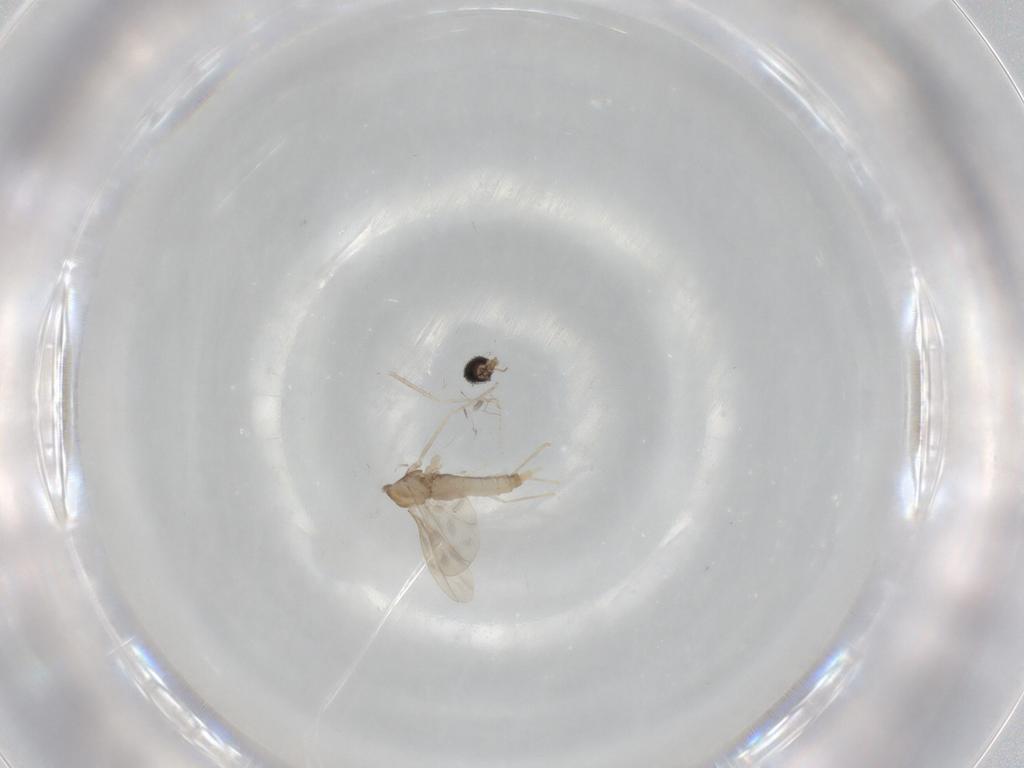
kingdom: Animalia
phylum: Arthropoda
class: Insecta
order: Diptera
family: Cecidomyiidae
